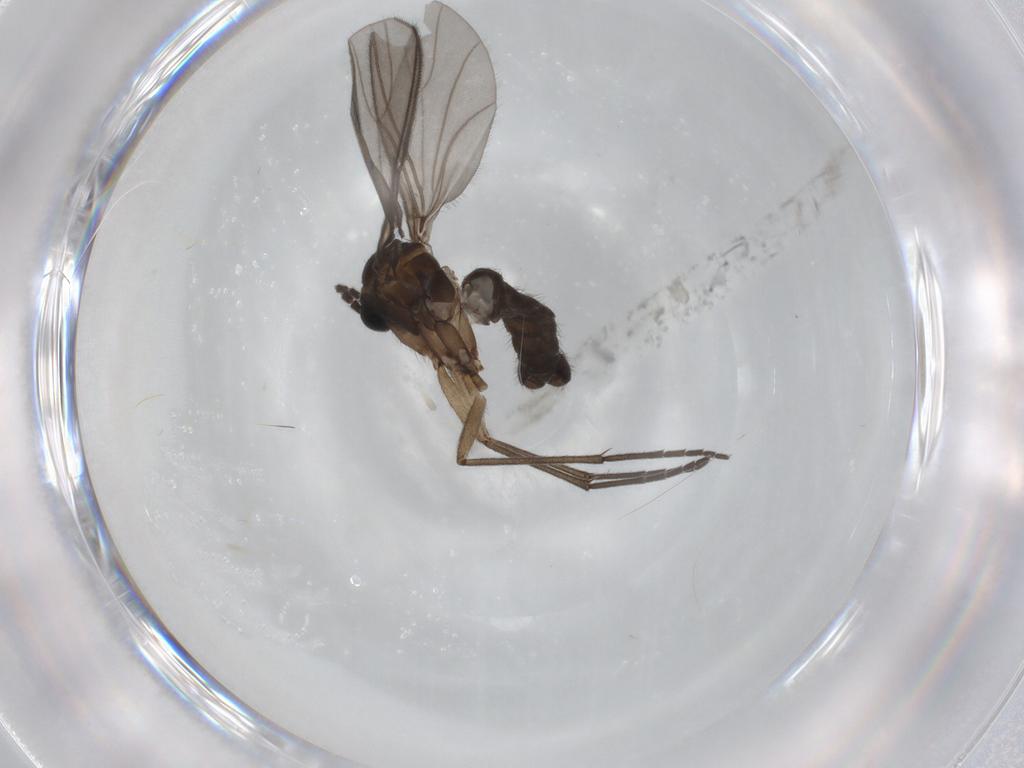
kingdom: Animalia
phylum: Arthropoda
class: Insecta
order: Diptera
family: Sciaridae
